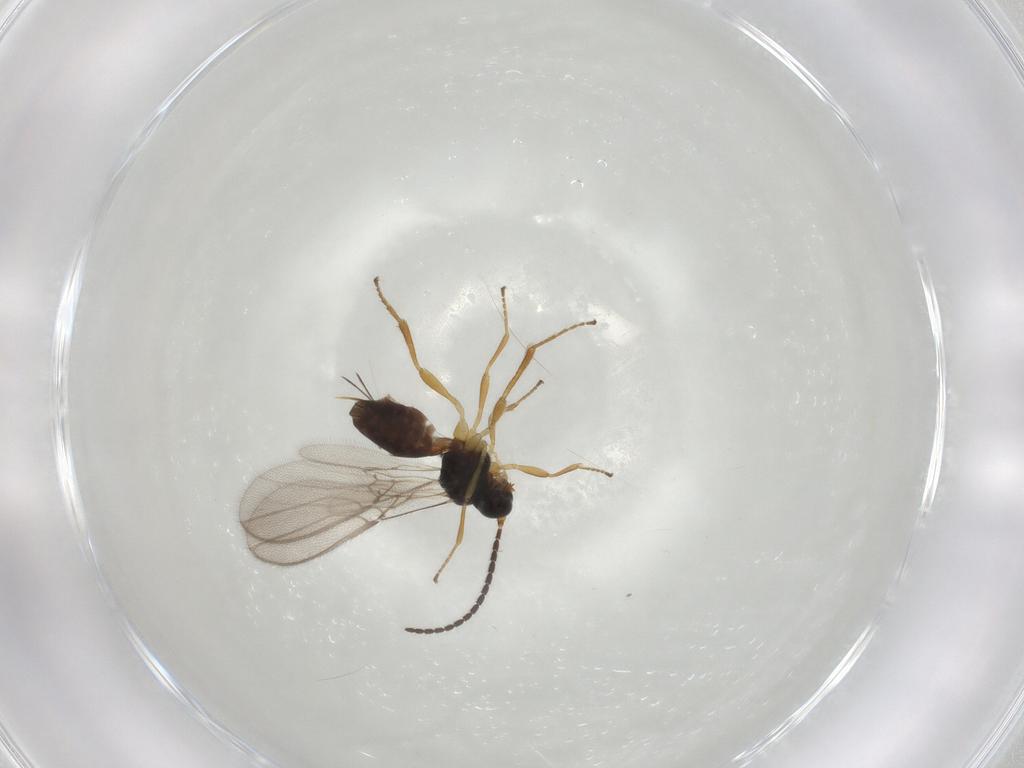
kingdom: Animalia
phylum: Arthropoda
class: Insecta
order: Hymenoptera
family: Braconidae
